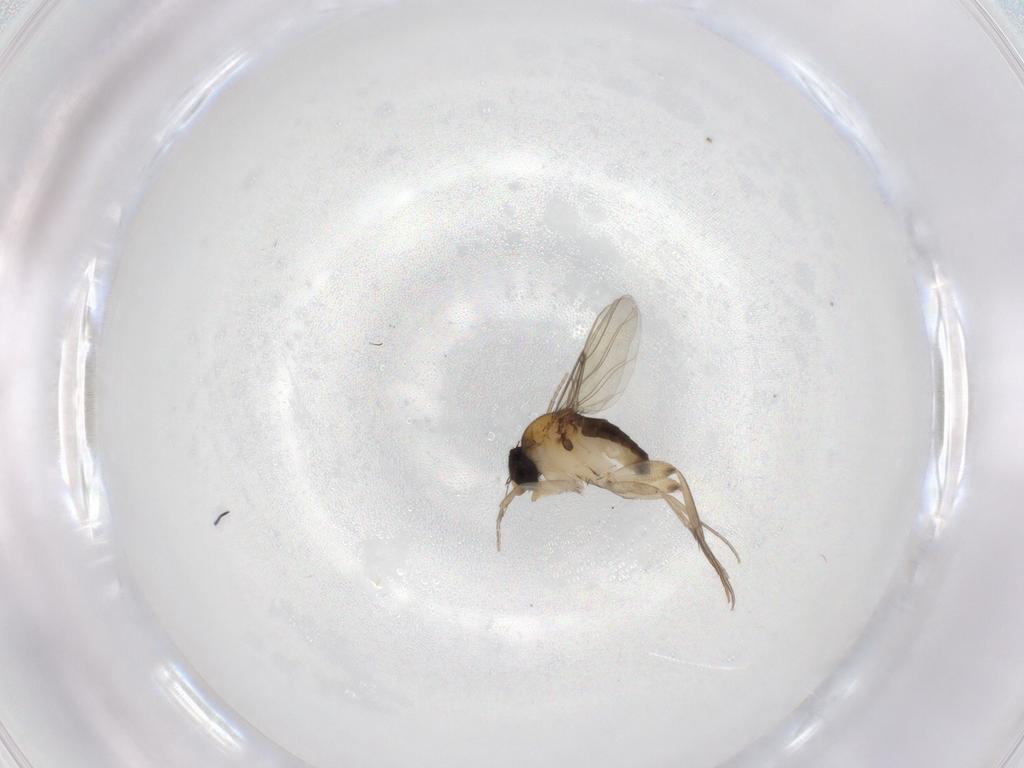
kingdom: Animalia
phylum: Arthropoda
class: Insecta
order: Diptera
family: Phoridae
